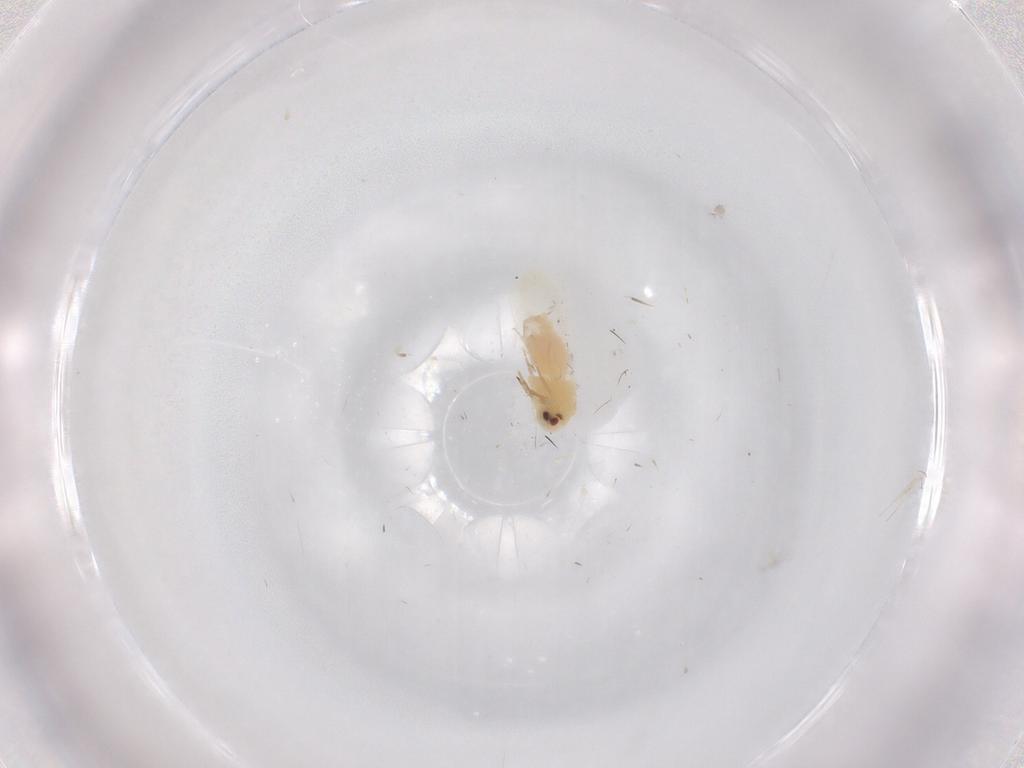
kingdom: Animalia
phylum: Arthropoda
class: Insecta
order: Hemiptera
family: Aleyrodidae
